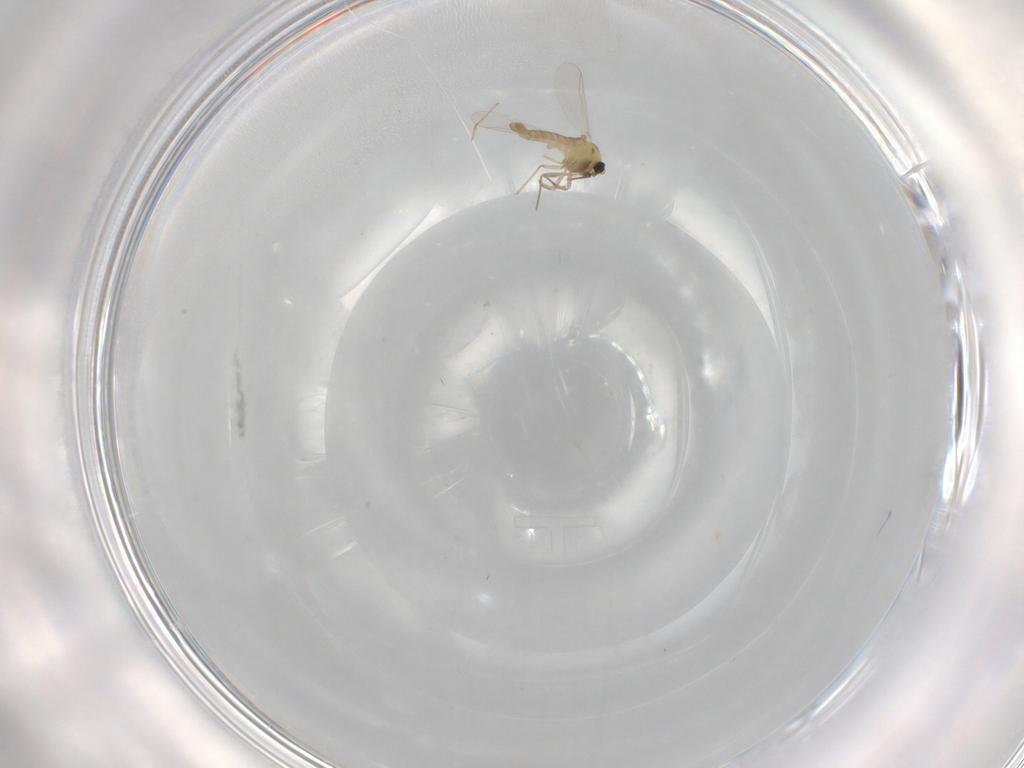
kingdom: Animalia
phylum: Arthropoda
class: Insecta
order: Diptera
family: Chironomidae
